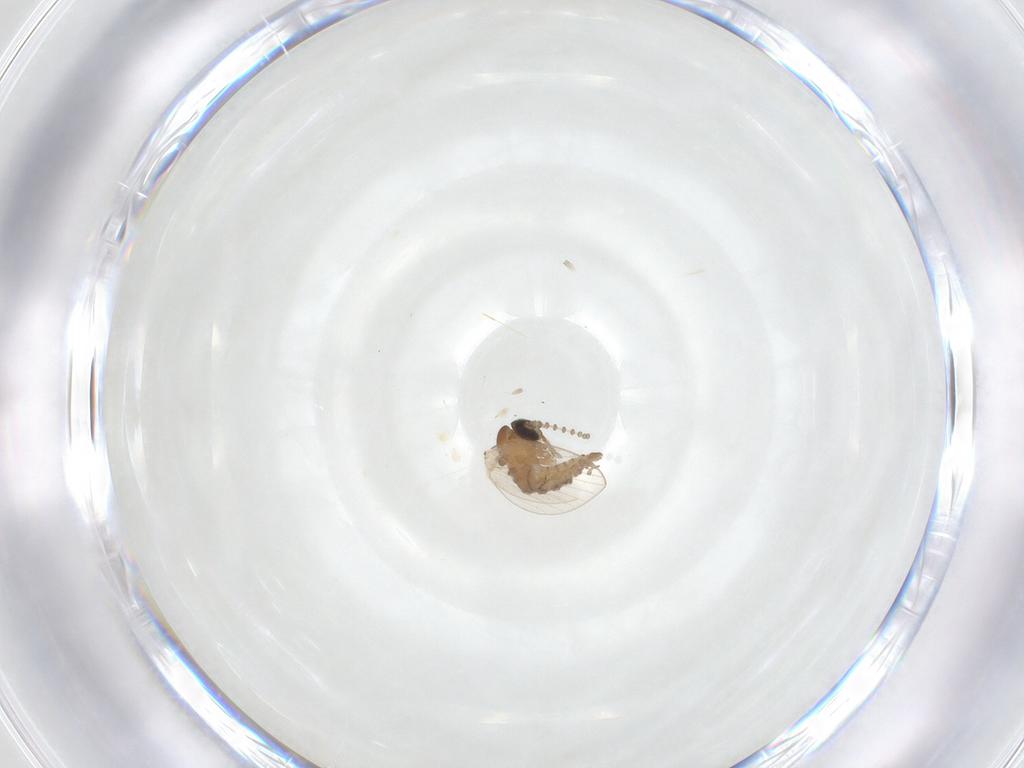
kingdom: Animalia
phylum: Arthropoda
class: Insecta
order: Diptera
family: Psychodidae
